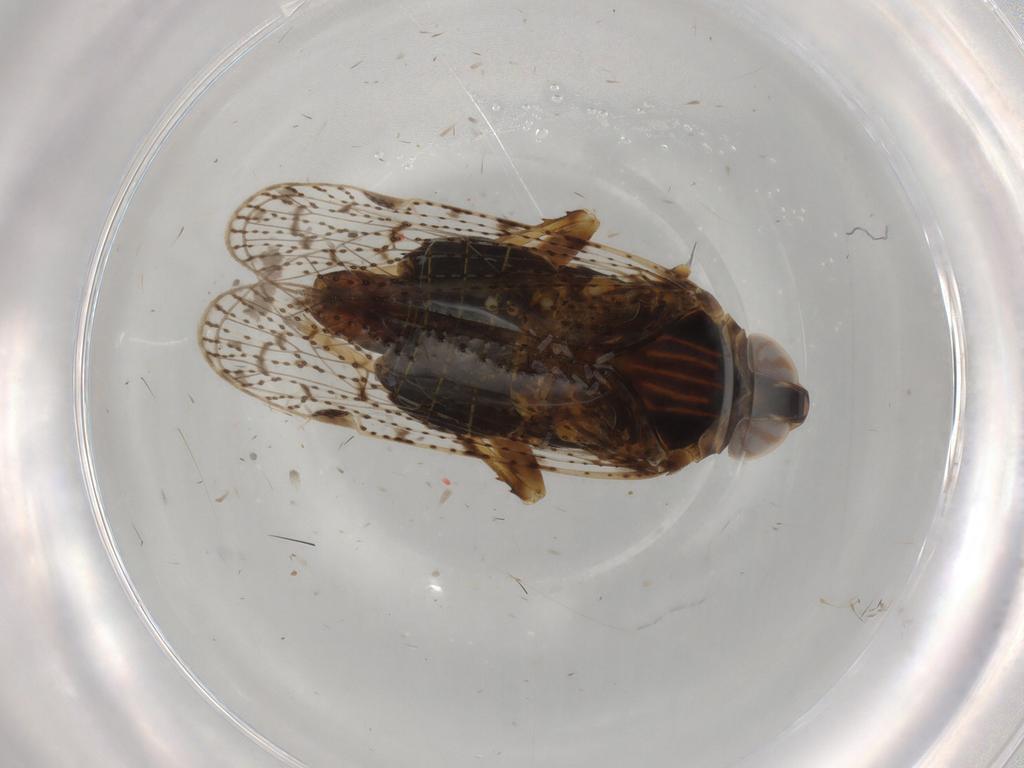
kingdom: Animalia
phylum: Arthropoda
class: Insecta
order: Hemiptera
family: Cixiidae
